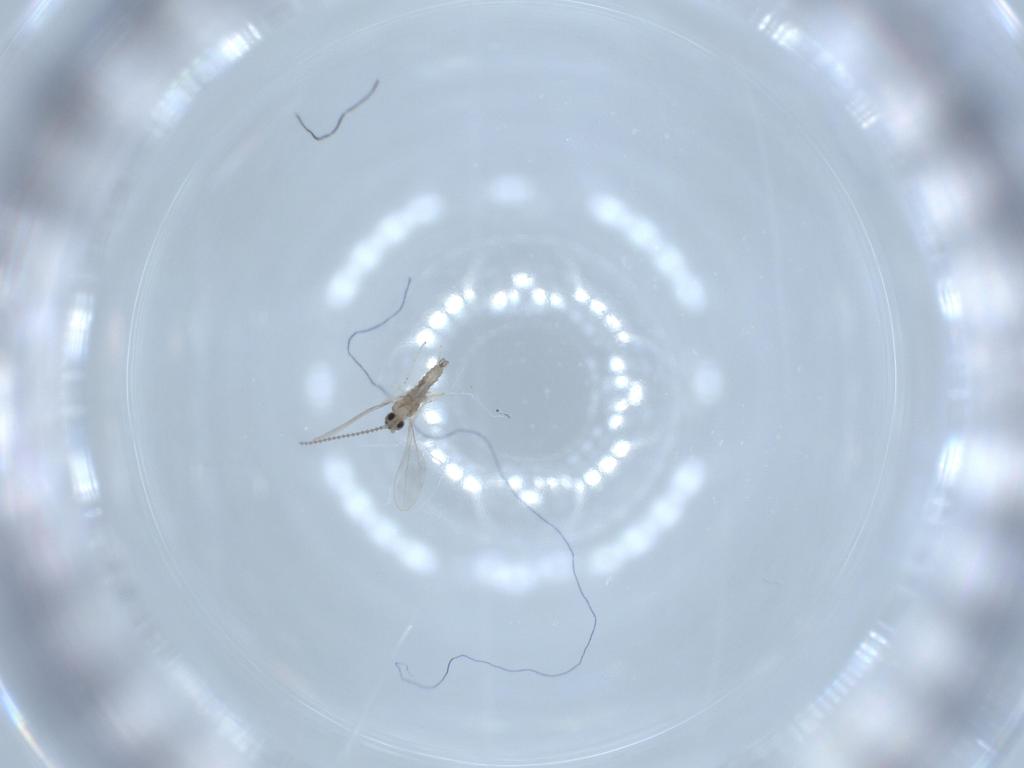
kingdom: Animalia
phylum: Arthropoda
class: Insecta
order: Diptera
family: Cecidomyiidae
